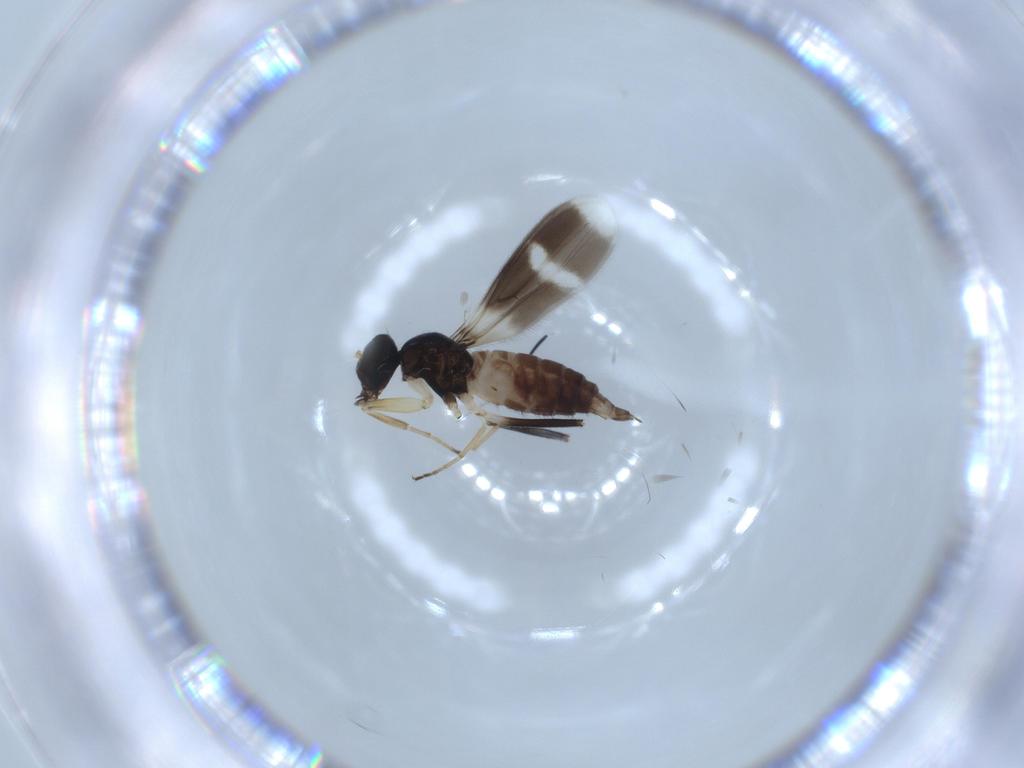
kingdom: Animalia
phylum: Arthropoda
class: Insecta
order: Diptera
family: Hybotidae
